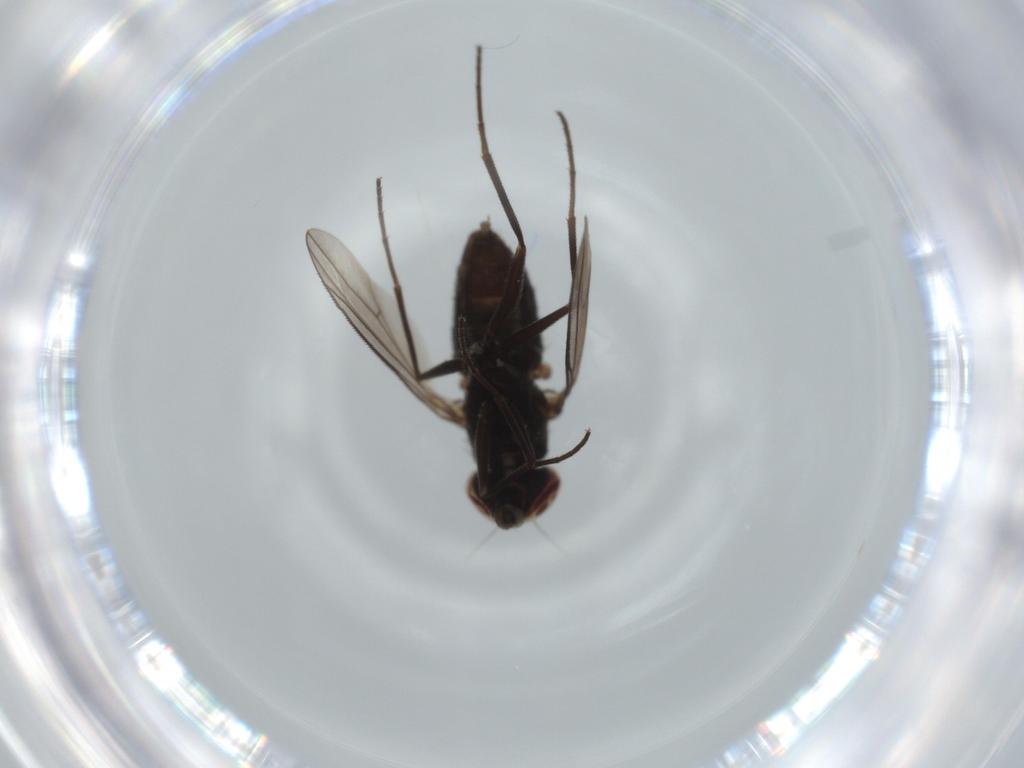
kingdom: Animalia
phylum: Arthropoda
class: Insecta
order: Diptera
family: Dolichopodidae
